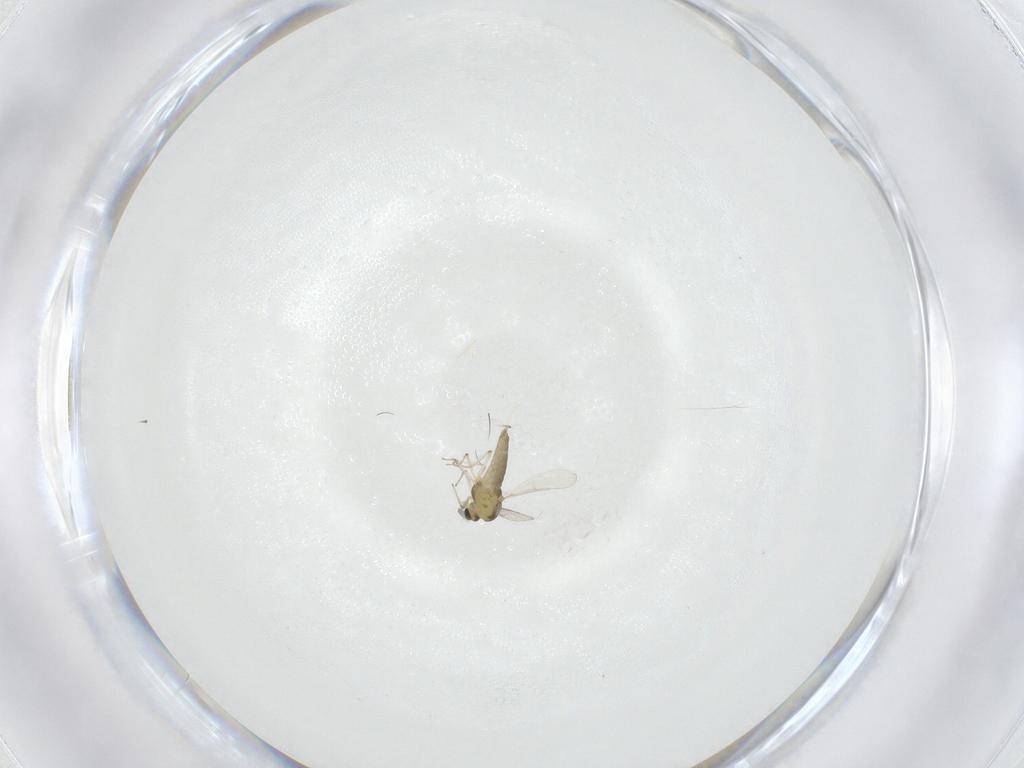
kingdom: Animalia
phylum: Arthropoda
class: Insecta
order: Diptera
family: Chironomidae
